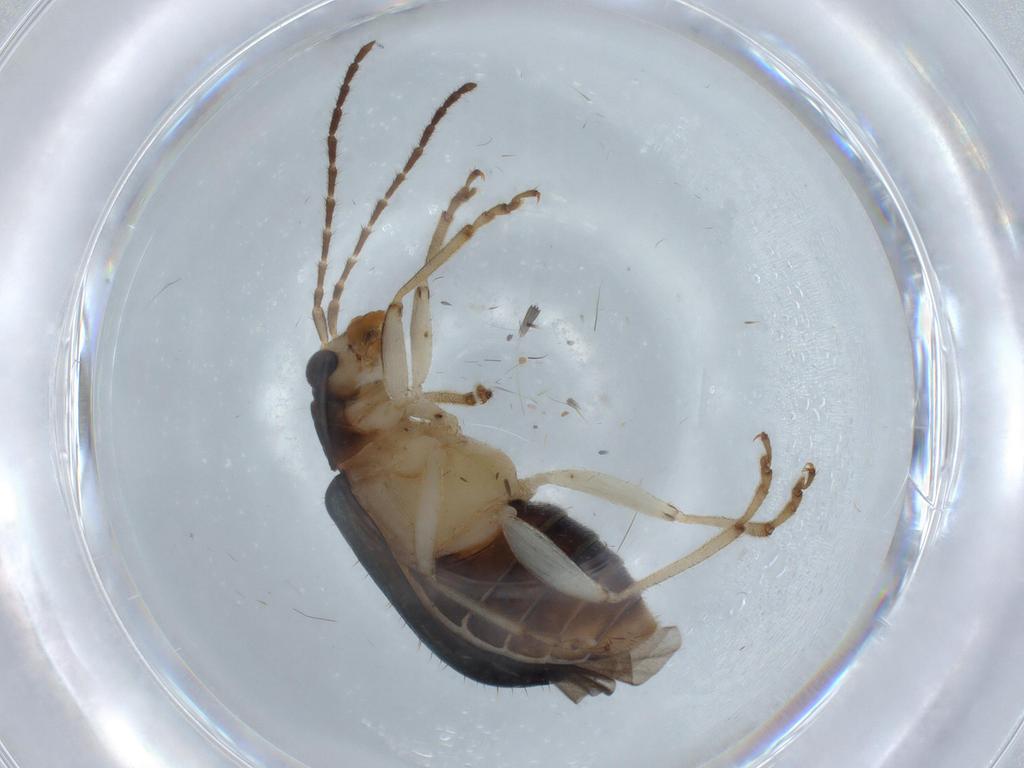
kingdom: Animalia
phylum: Arthropoda
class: Insecta
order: Coleoptera
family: Chrysomelidae
